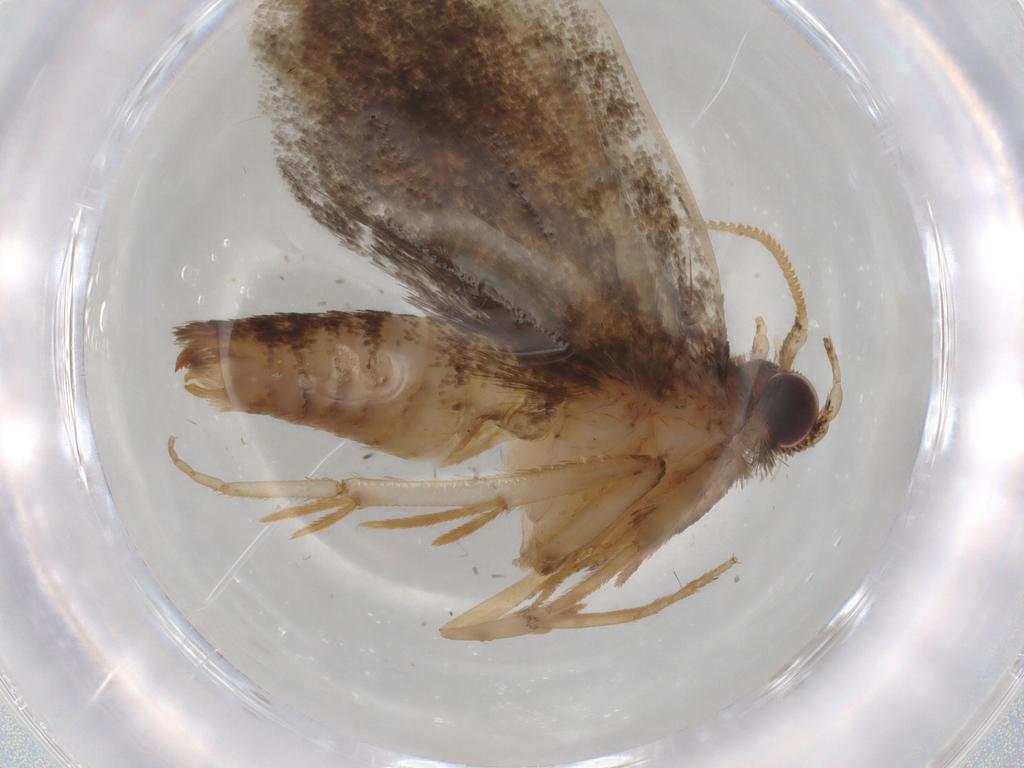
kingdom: Animalia
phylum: Arthropoda
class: Insecta
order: Lepidoptera
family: Tineidae
